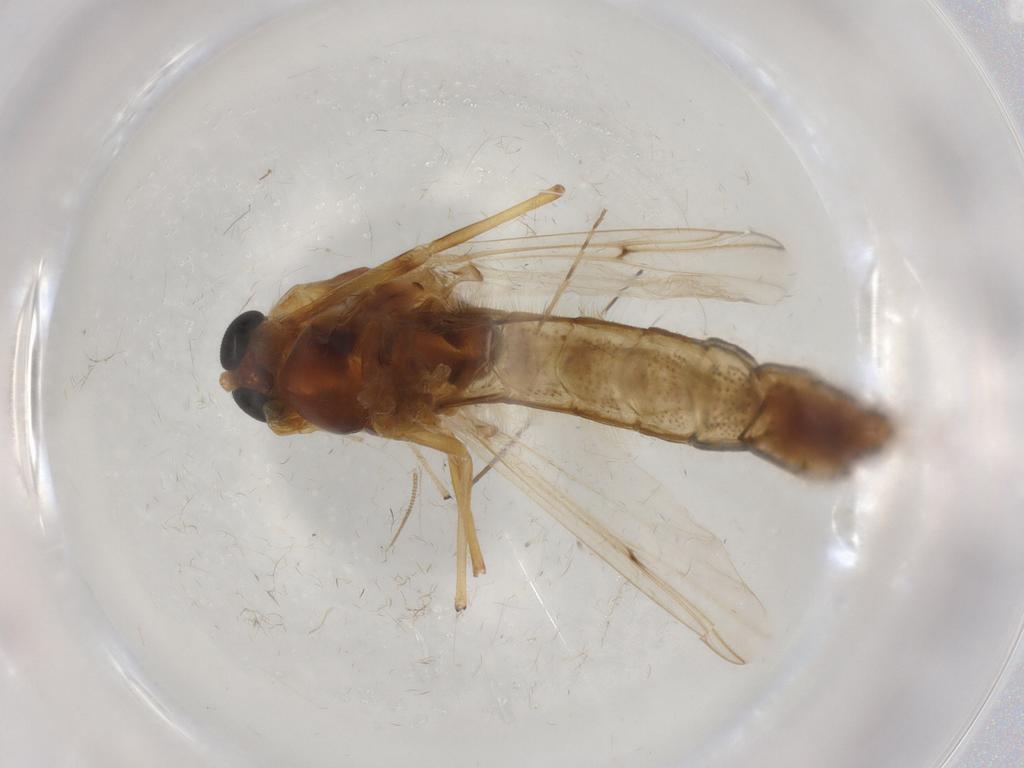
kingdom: Animalia
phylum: Arthropoda
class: Insecta
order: Diptera
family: Chironomidae
